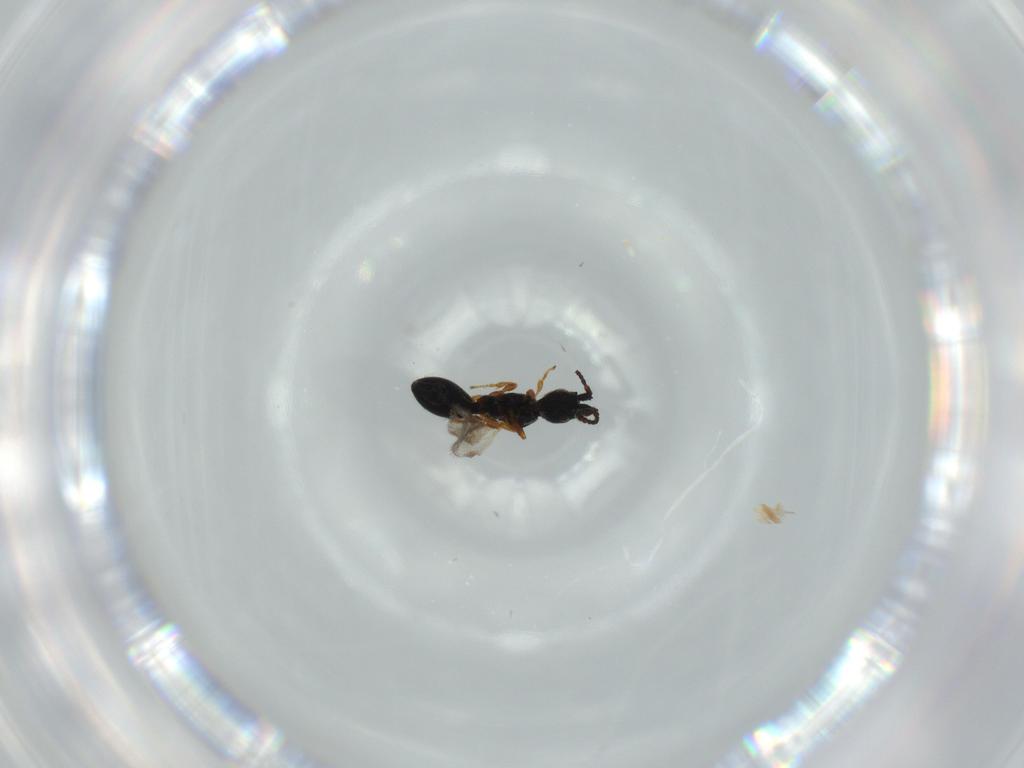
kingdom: Animalia
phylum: Arthropoda
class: Insecta
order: Hymenoptera
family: Diapriidae
